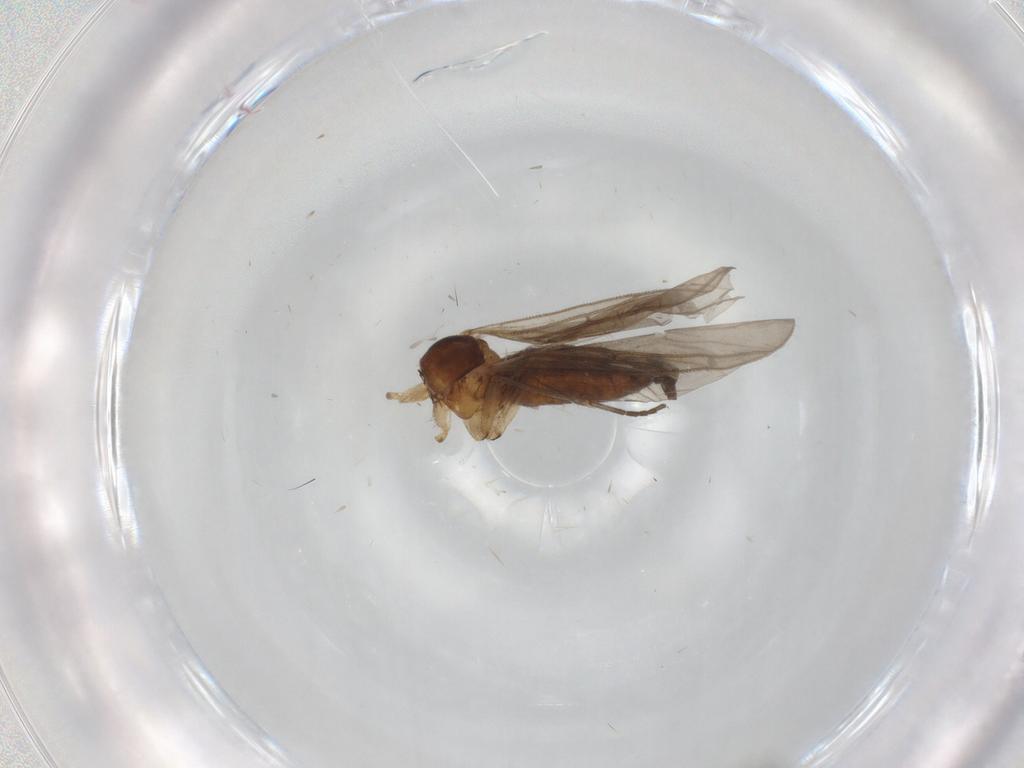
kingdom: Animalia
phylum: Arthropoda
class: Insecta
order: Diptera
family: Sciaridae
